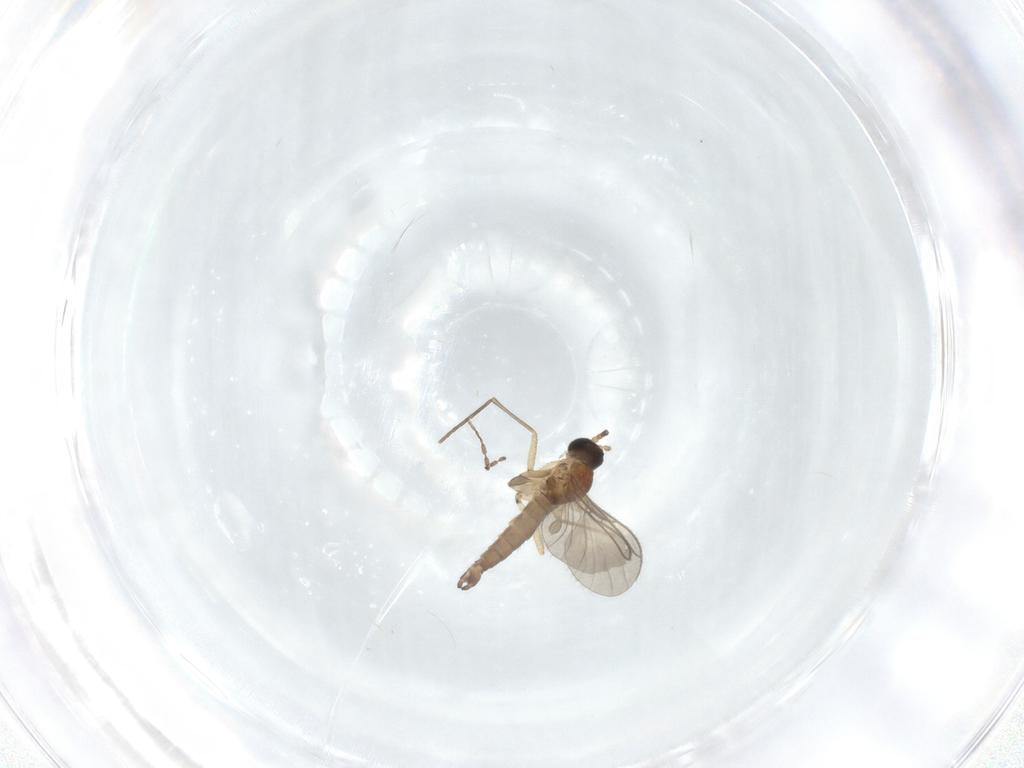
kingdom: Animalia
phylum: Arthropoda
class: Insecta
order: Diptera
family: Cecidomyiidae
